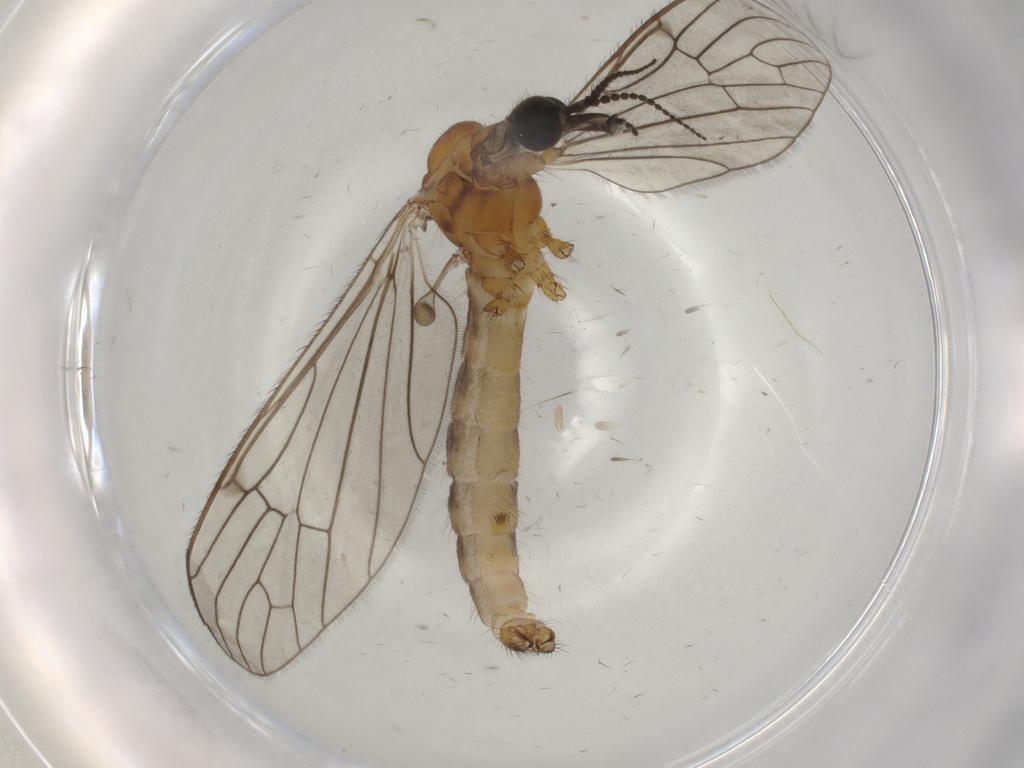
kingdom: Animalia
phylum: Arthropoda
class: Insecta
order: Diptera
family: Limoniidae
